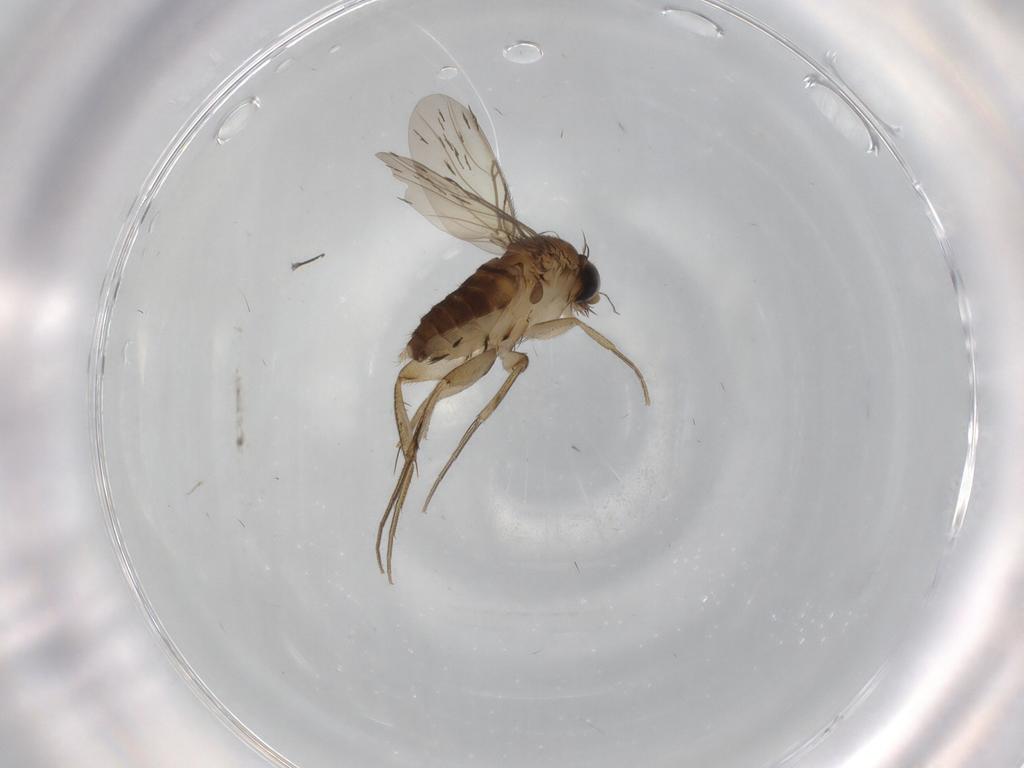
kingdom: Animalia
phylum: Arthropoda
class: Insecta
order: Diptera
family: Phoridae
